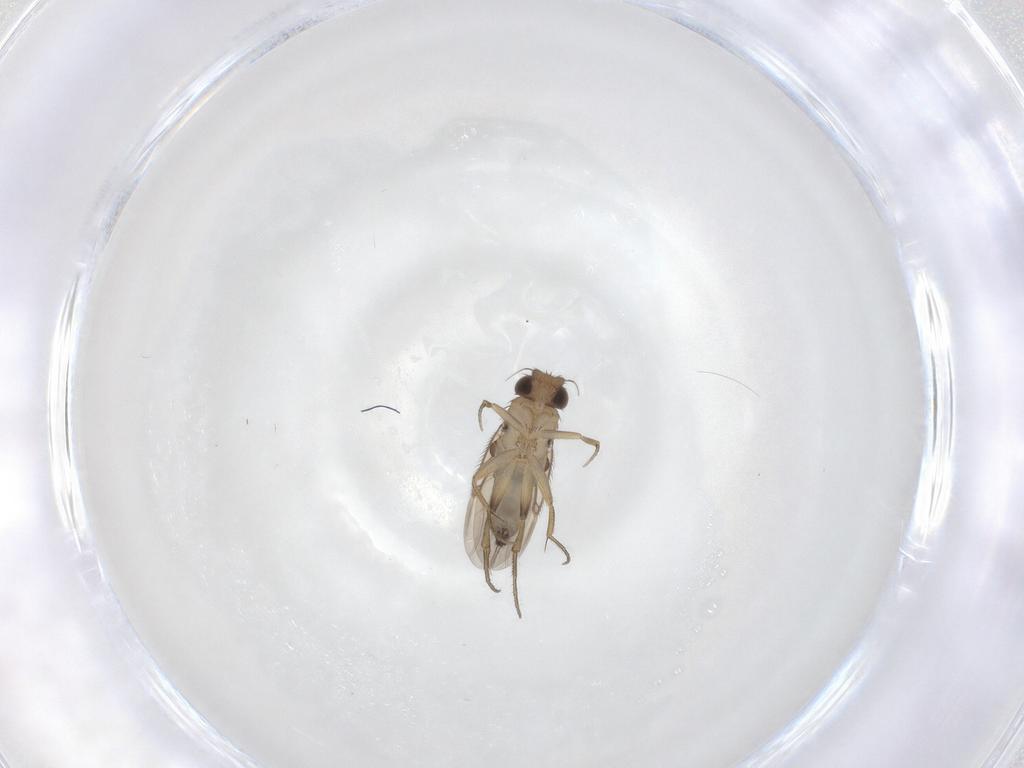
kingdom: Animalia
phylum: Arthropoda
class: Insecta
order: Diptera
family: Phoridae
